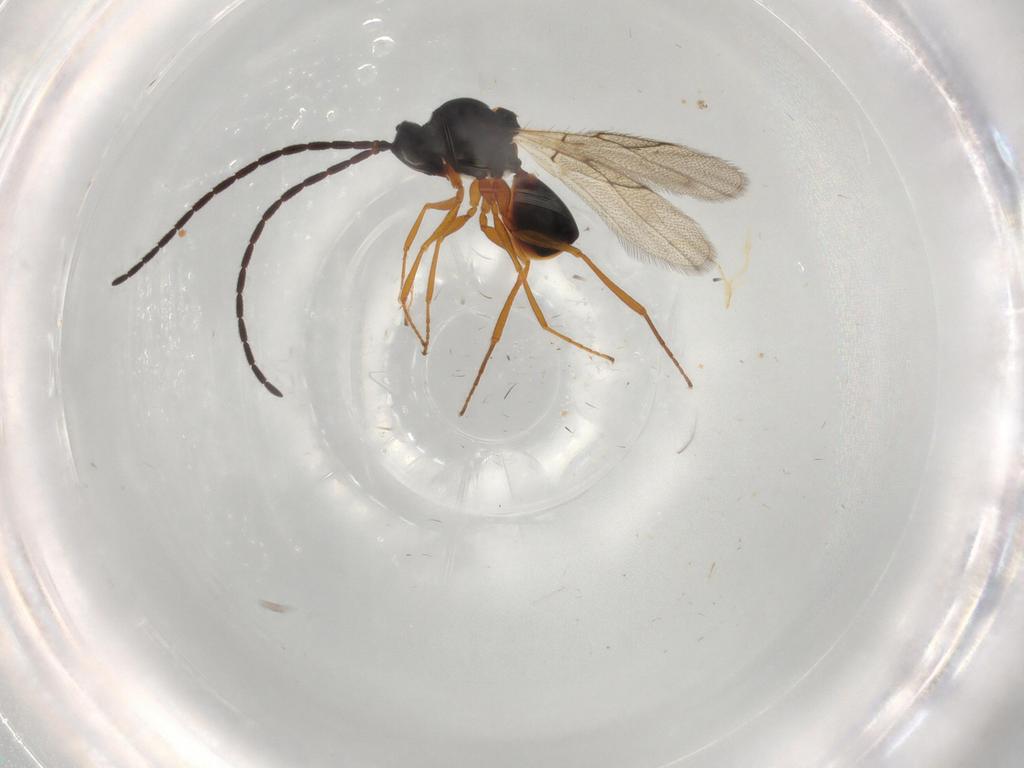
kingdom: Animalia
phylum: Arthropoda
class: Insecta
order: Hymenoptera
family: Figitidae
